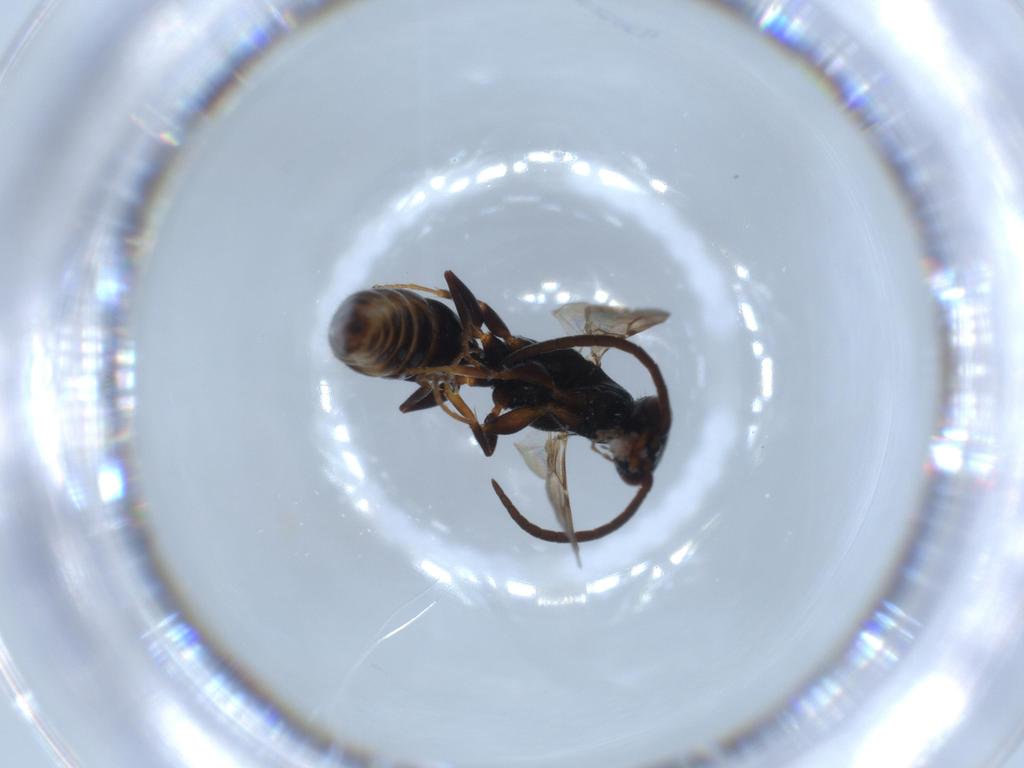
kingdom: Animalia
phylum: Arthropoda
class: Insecta
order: Hymenoptera
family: Bethylidae
